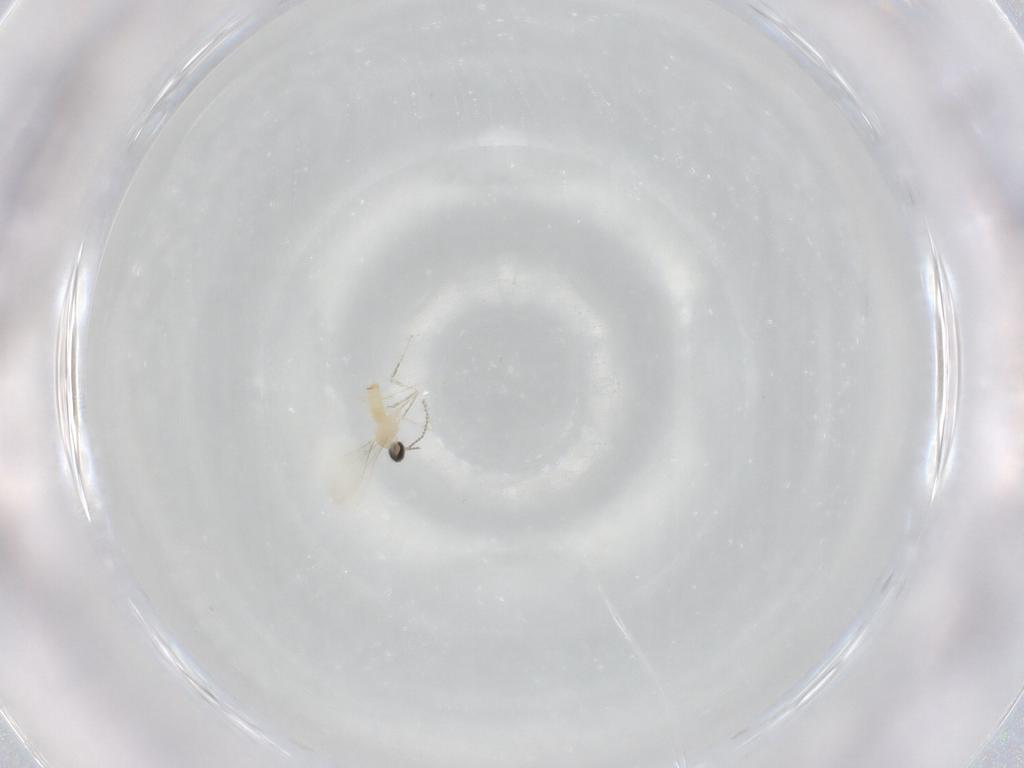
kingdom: Animalia
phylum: Arthropoda
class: Insecta
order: Diptera
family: Cecidomyiidae
